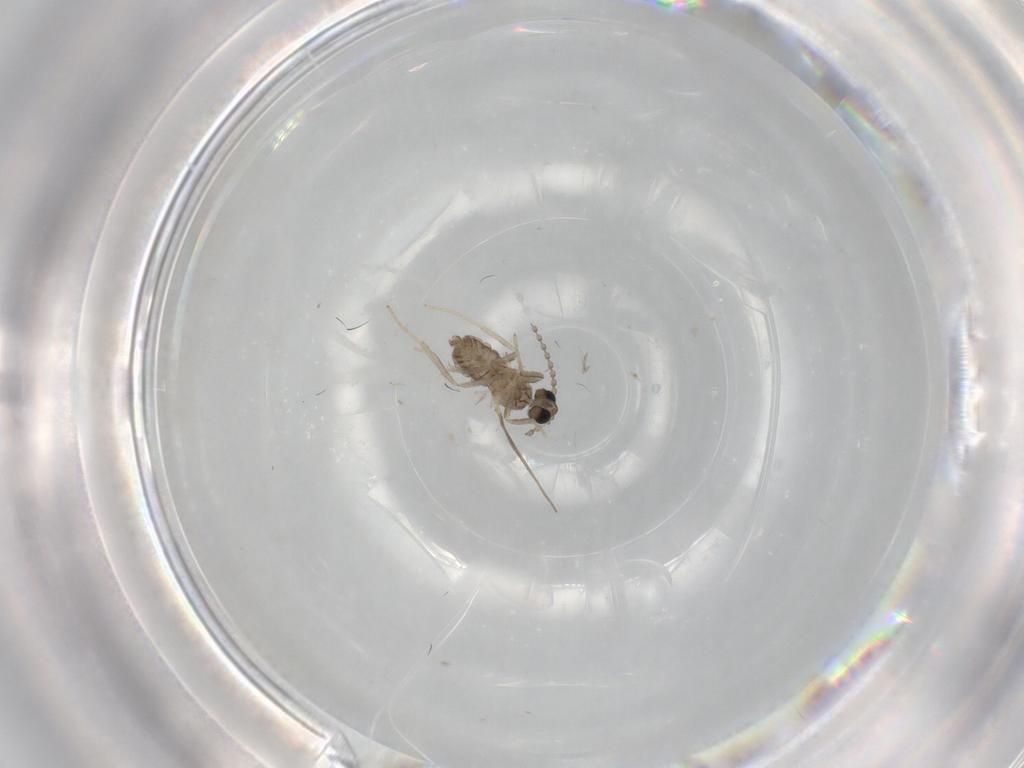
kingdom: Animalia
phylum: Arthropoda
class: Insecta
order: Diptera
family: Cecidomyiidae
